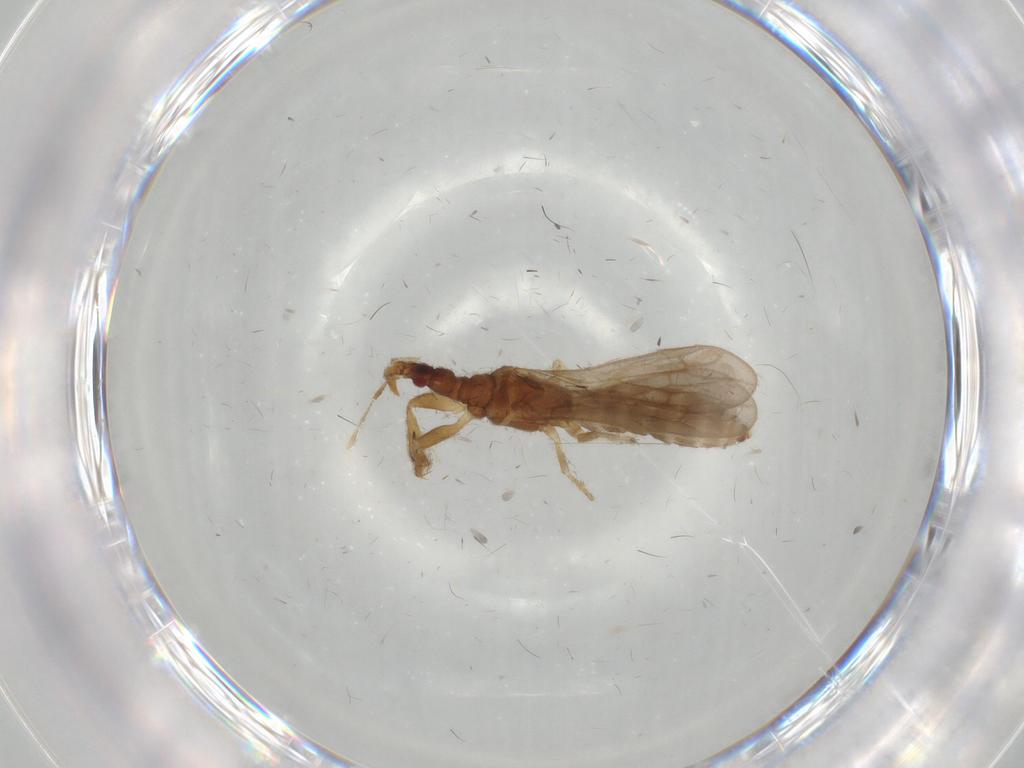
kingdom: Animalia
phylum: Arthropoda
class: Insecta
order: Hemiptera
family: Enicocephalidae
